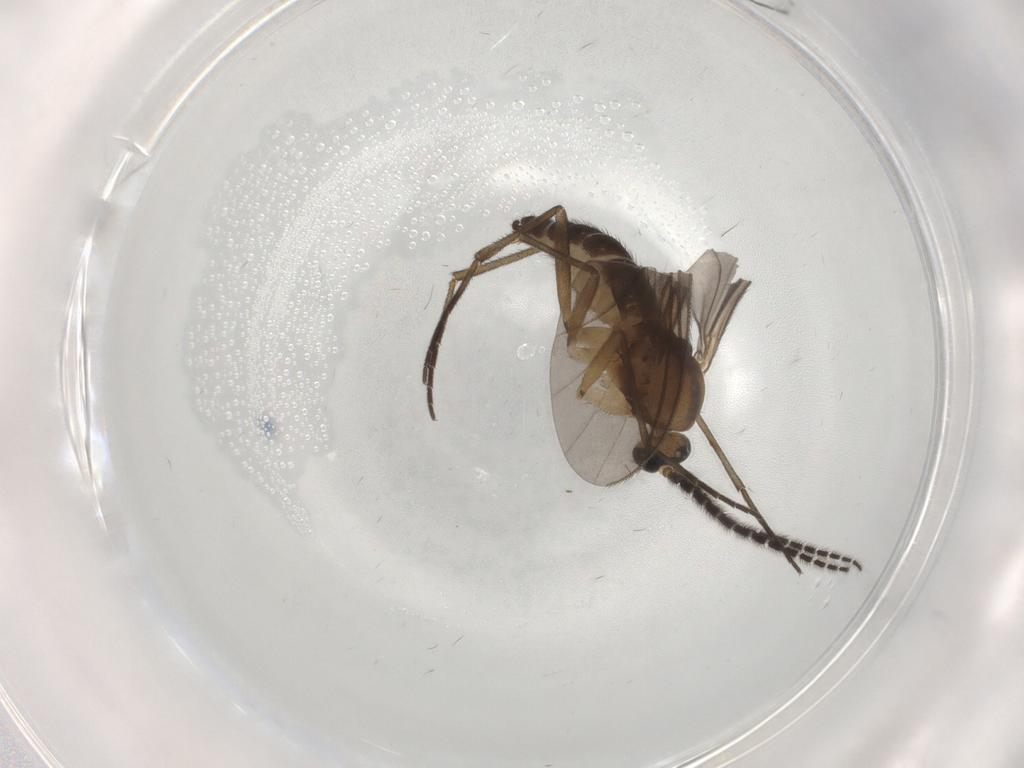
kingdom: Animalia
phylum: Arthropoda
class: Insecta
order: Diptera
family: Sciaridae
